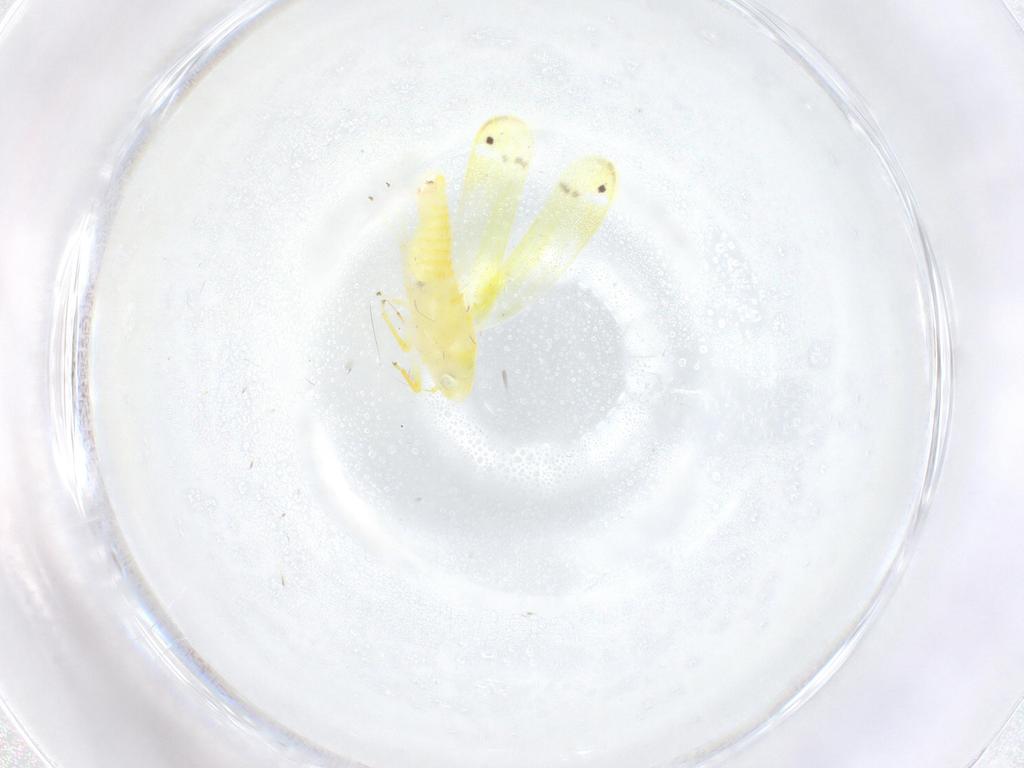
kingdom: Animalia
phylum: Arthropoda
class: Insecta
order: Hemiptera
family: Cicadellidae
